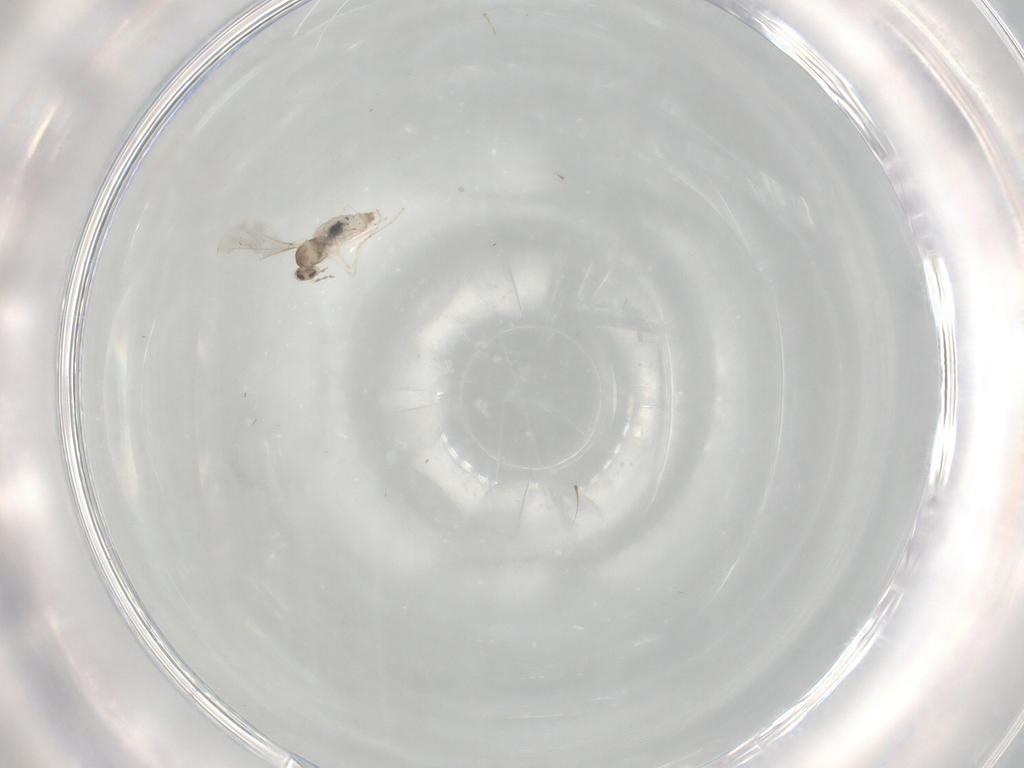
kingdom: Animalia
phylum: Arthropoda
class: Insecta
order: Diptera
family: Cecidomyiidae
